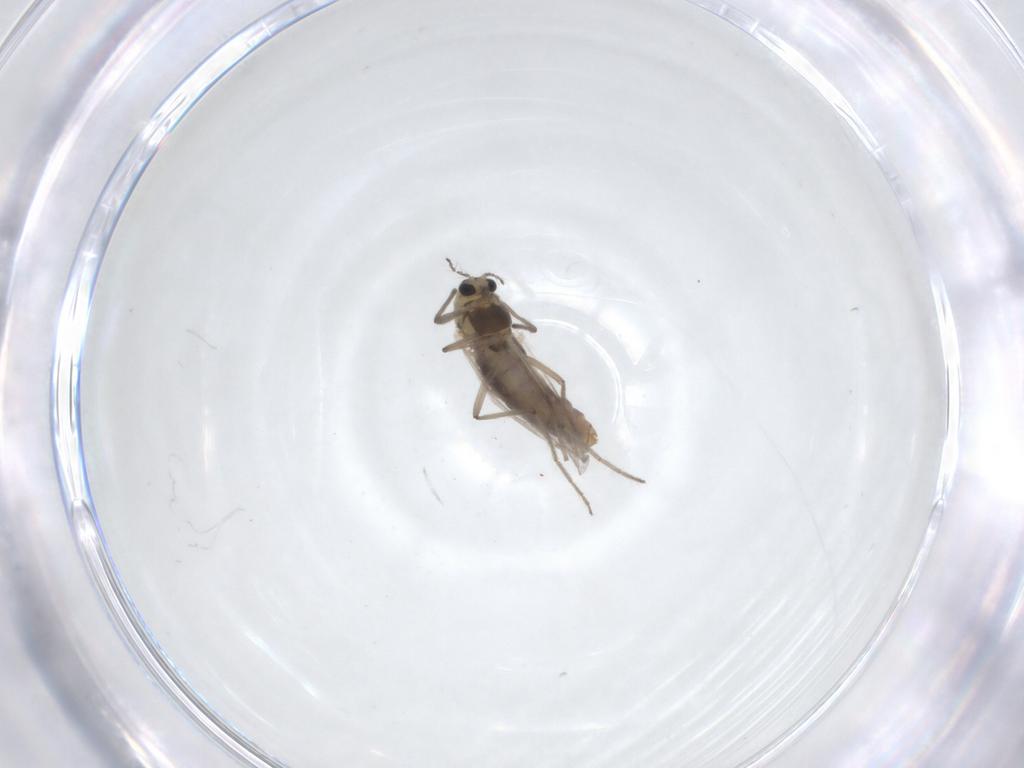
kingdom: Animalia
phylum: Arthropoda
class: Insecta
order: Diptera
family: Chironomidae
